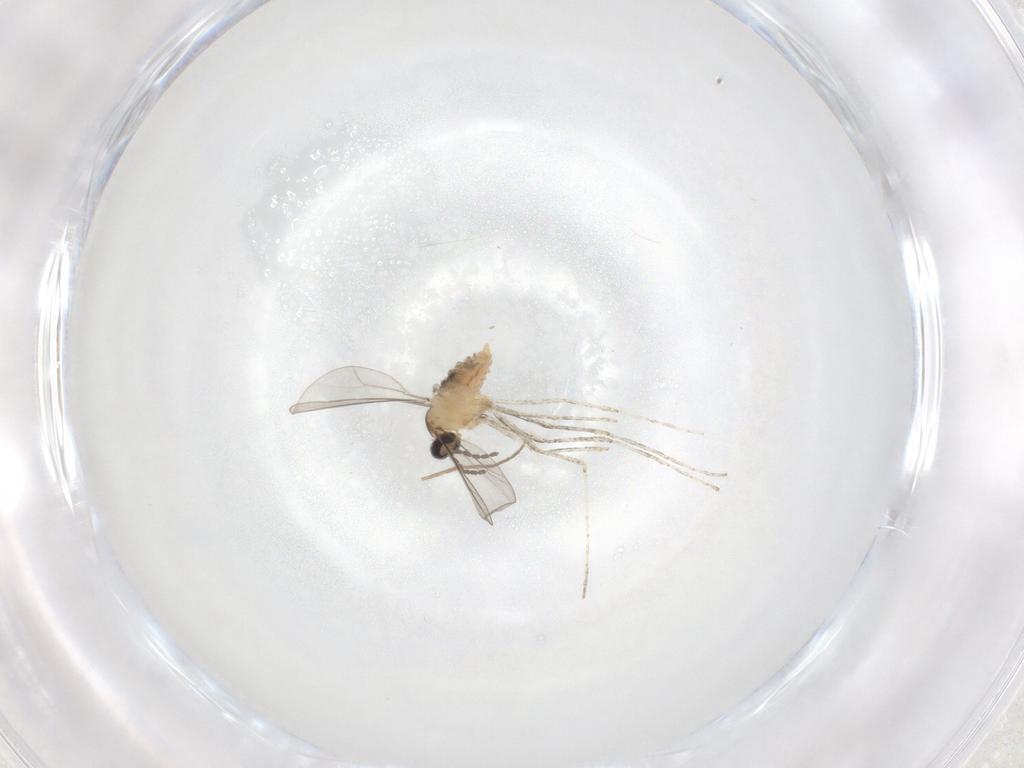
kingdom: Animalia
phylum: Arthropoda
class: Insecta
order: Diptera
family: Cecidomyiidae
